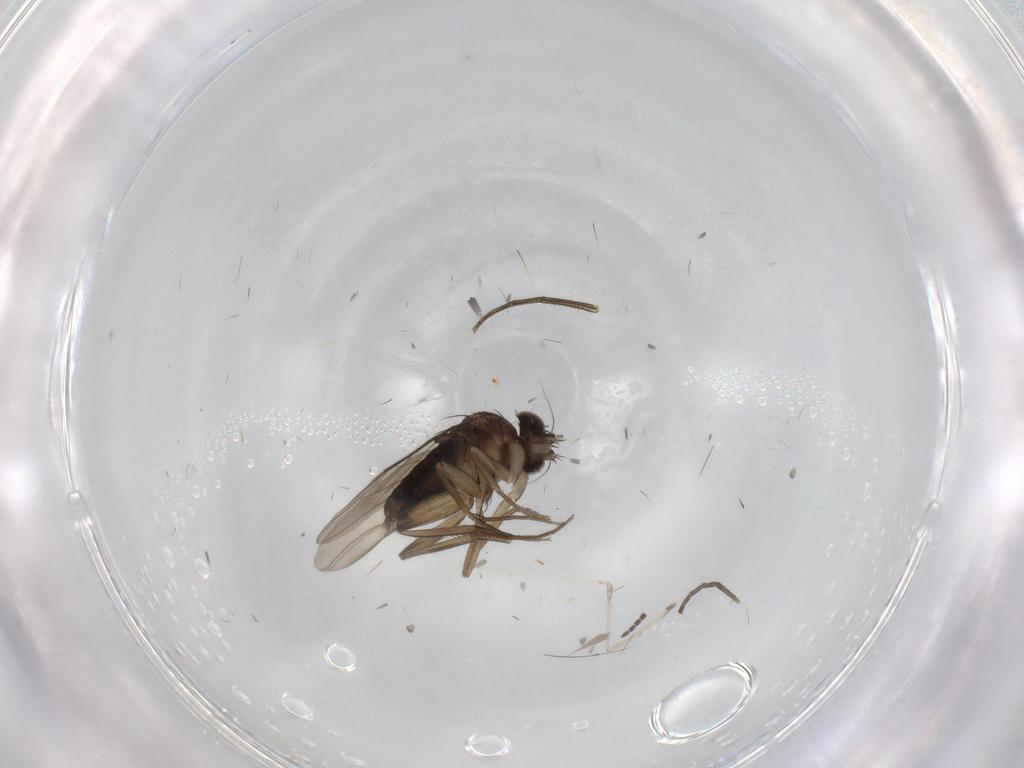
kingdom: Animalia
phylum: Arthropoda
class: Insecta
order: Diptera
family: Phoridae
